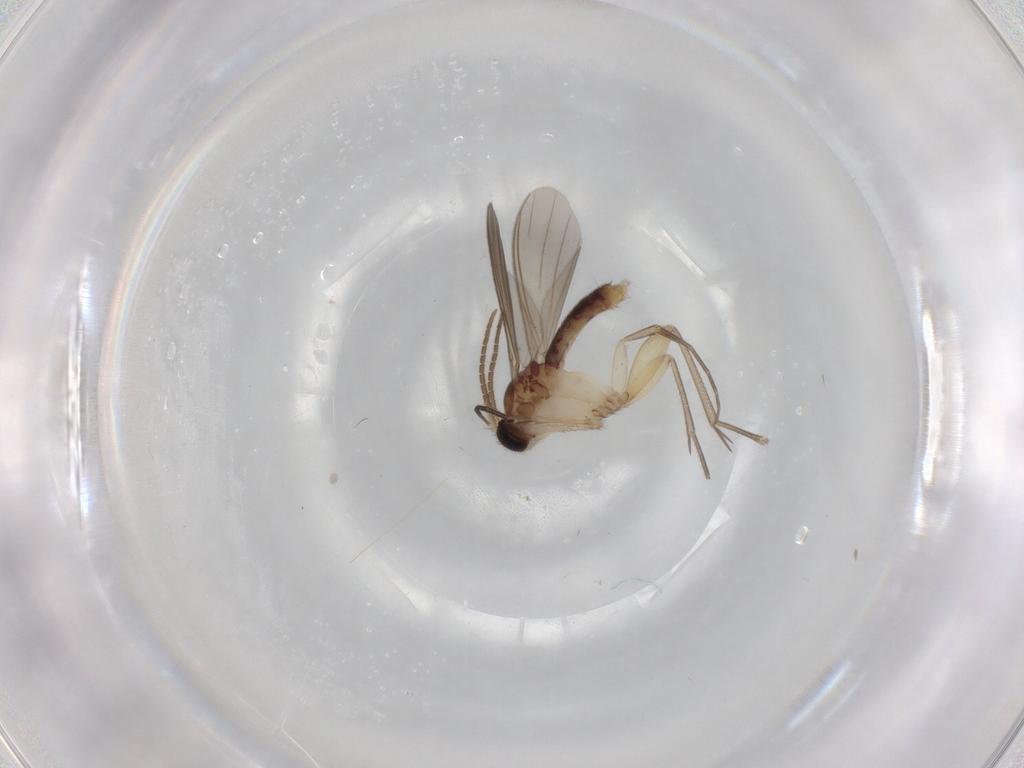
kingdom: Animalia
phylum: Arthropoda
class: Insecta
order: Diptera
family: Mycetophilidae
